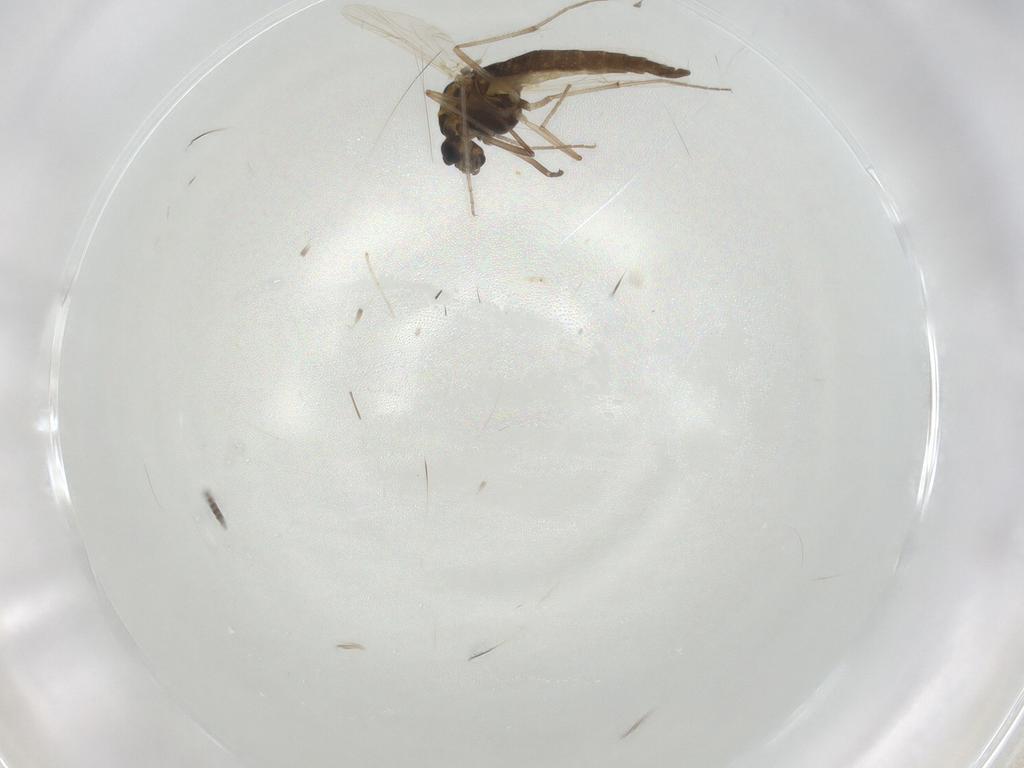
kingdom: Animalia
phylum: Arthropoda
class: Insecta
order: Diptera
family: Chironomidae
